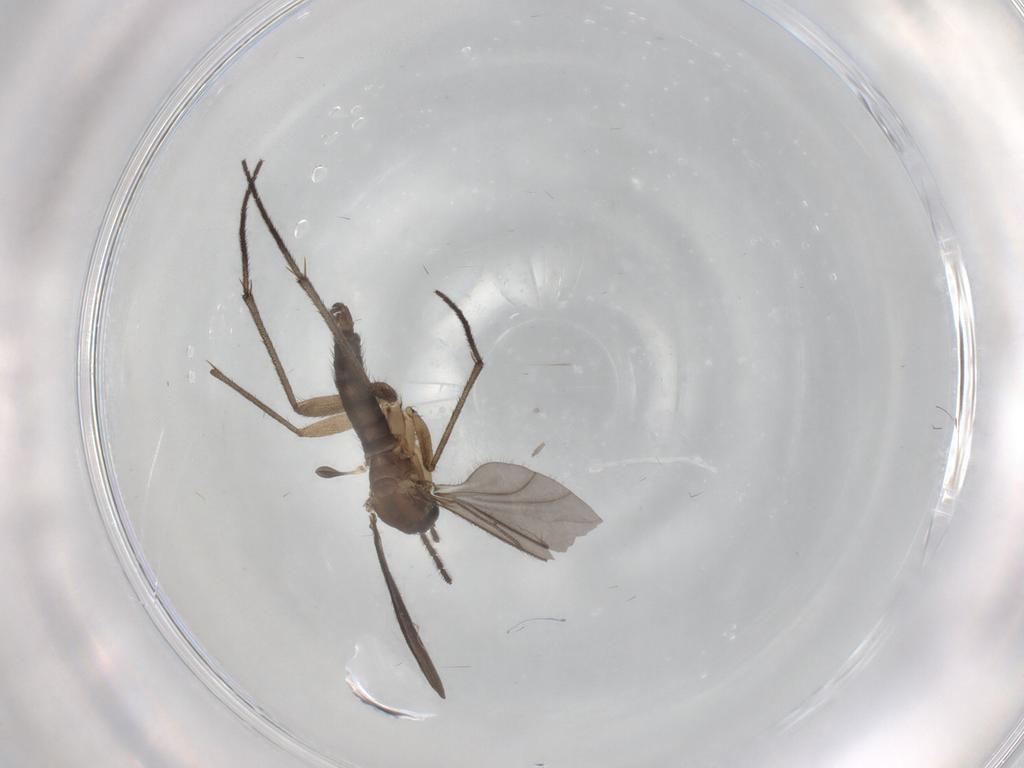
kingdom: Animalia
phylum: Arthropoda
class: Insecta
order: Diptera
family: Sciaridae
